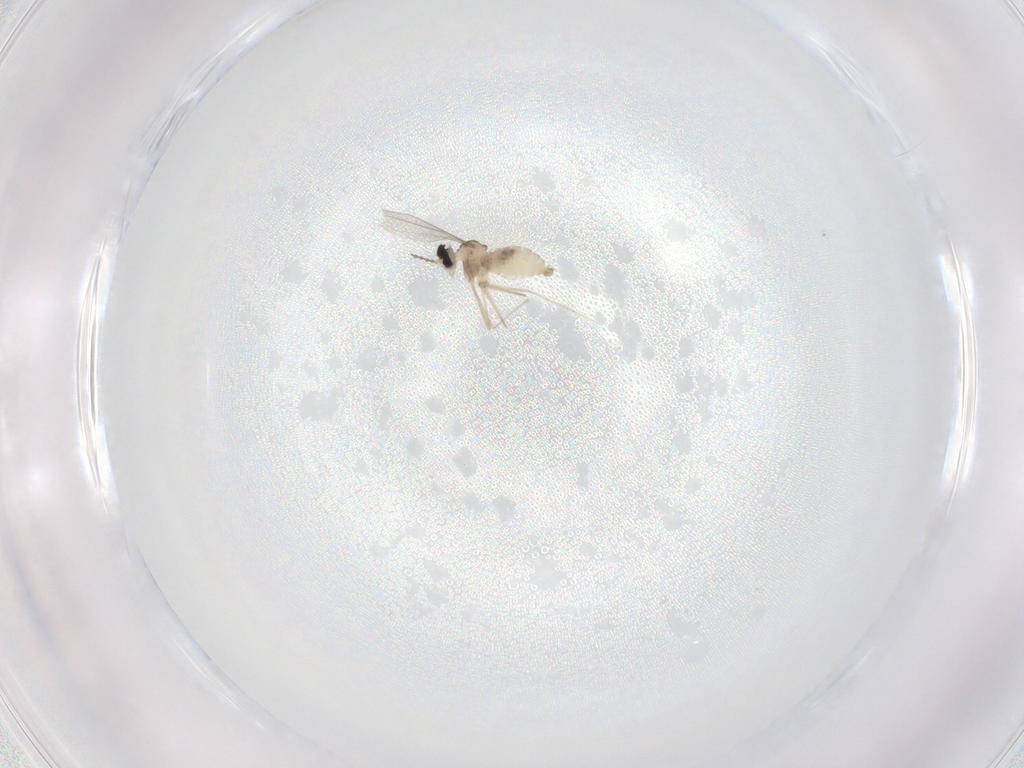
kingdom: Animalia
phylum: Arthropoda
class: Insecta
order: Diptera
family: Cecidomyiidae
